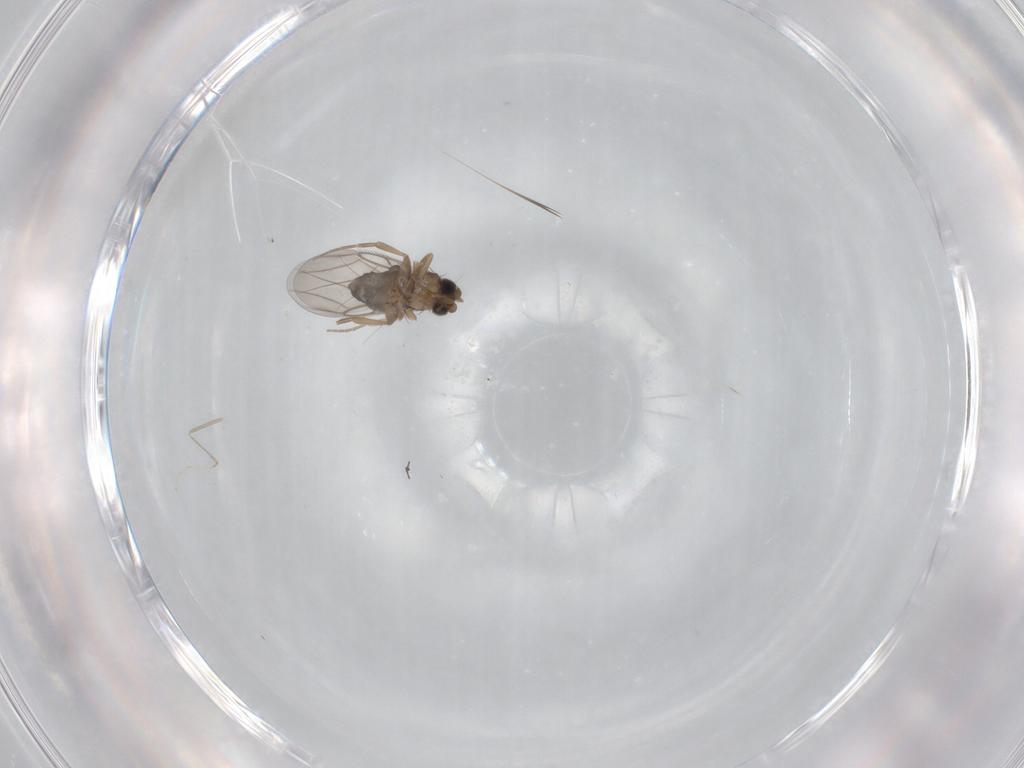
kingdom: Animalia
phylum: Arthropoda
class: Insecta
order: Diptera
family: Phoridae
